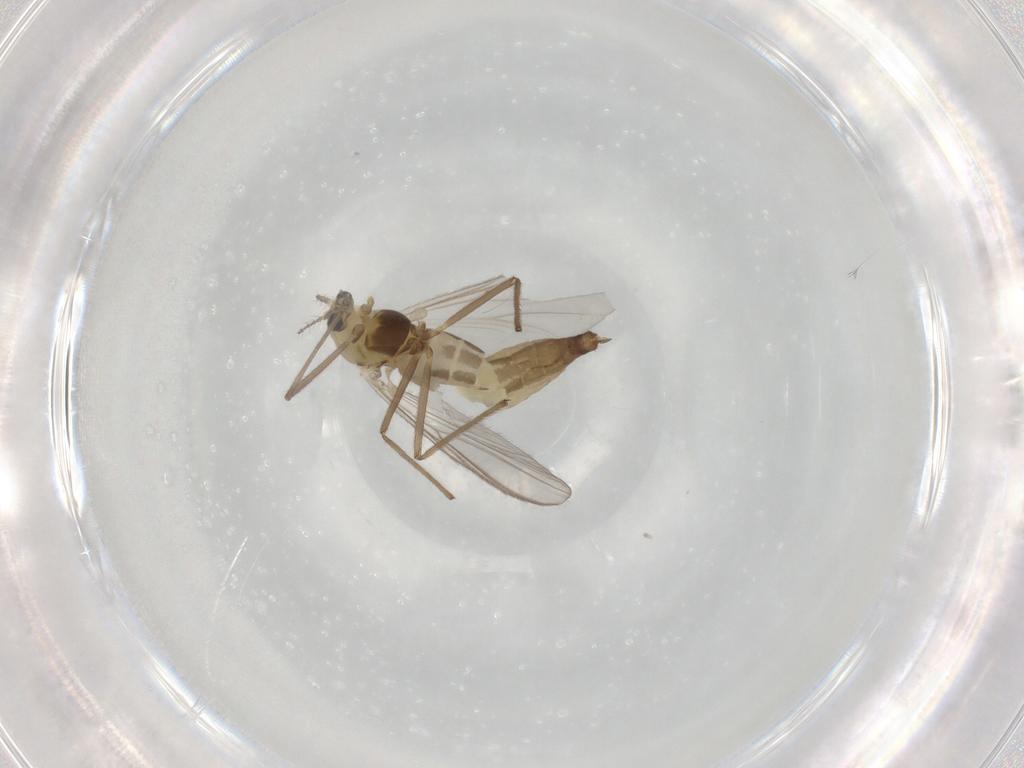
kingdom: Animalia
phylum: Arthropoda
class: Insecta
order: Diptera
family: Chironomidae
